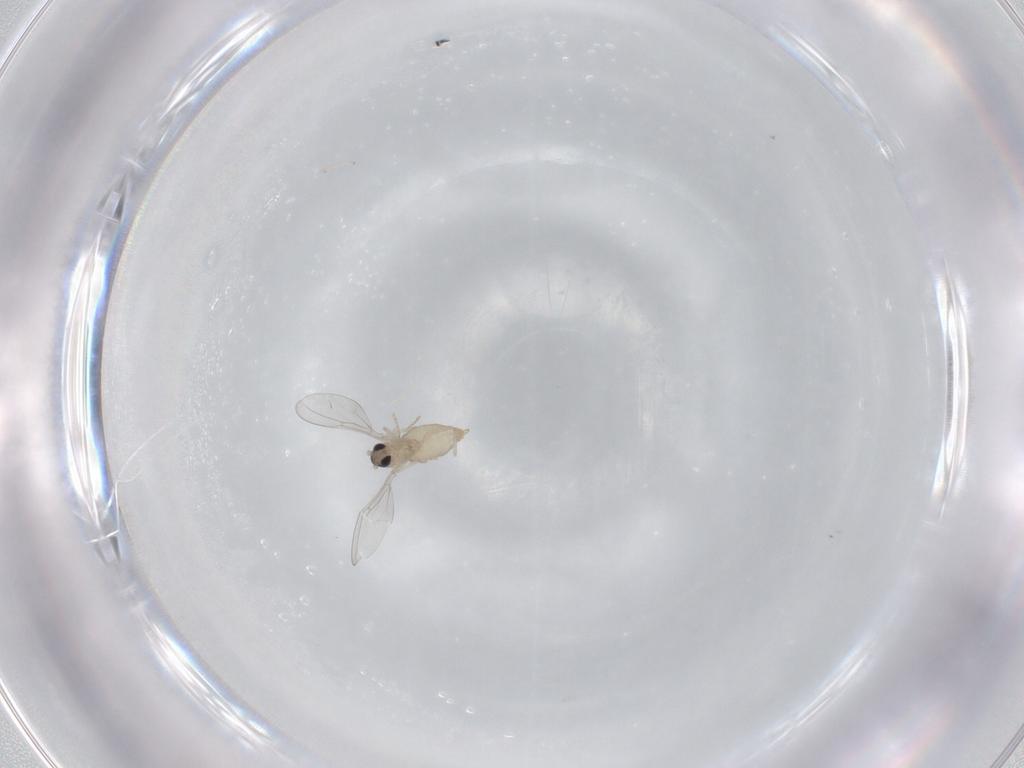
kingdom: Animalia
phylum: Arthropoda
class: Insecta
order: Diptera
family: Cecidomyiidae
